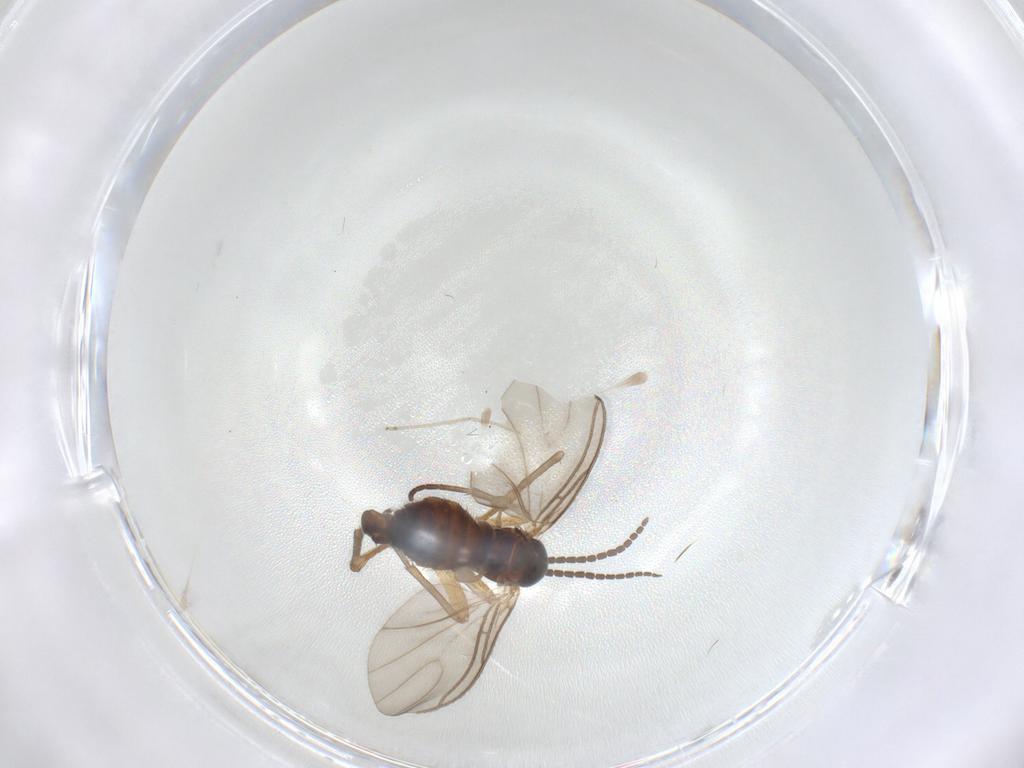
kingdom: Animalia
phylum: Arthropoda
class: Insecta
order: Diptera
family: Sciaridae
